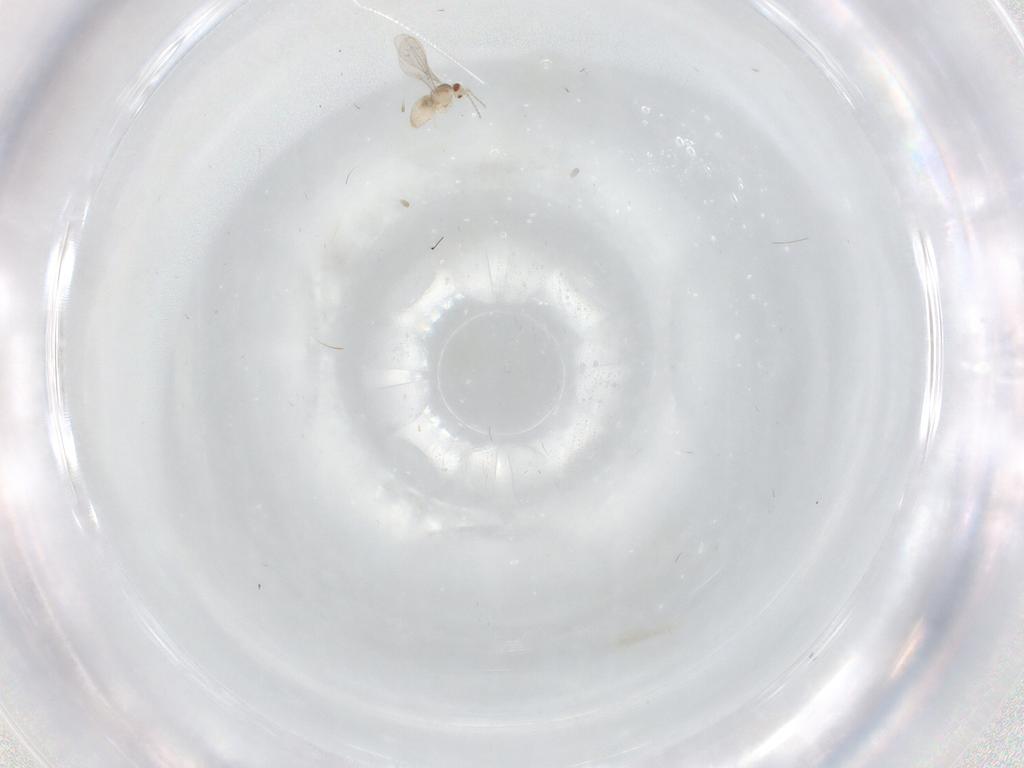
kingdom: Animalia
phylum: Arthropoda
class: Insecta
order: Diptera
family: Cecidomyiidae
